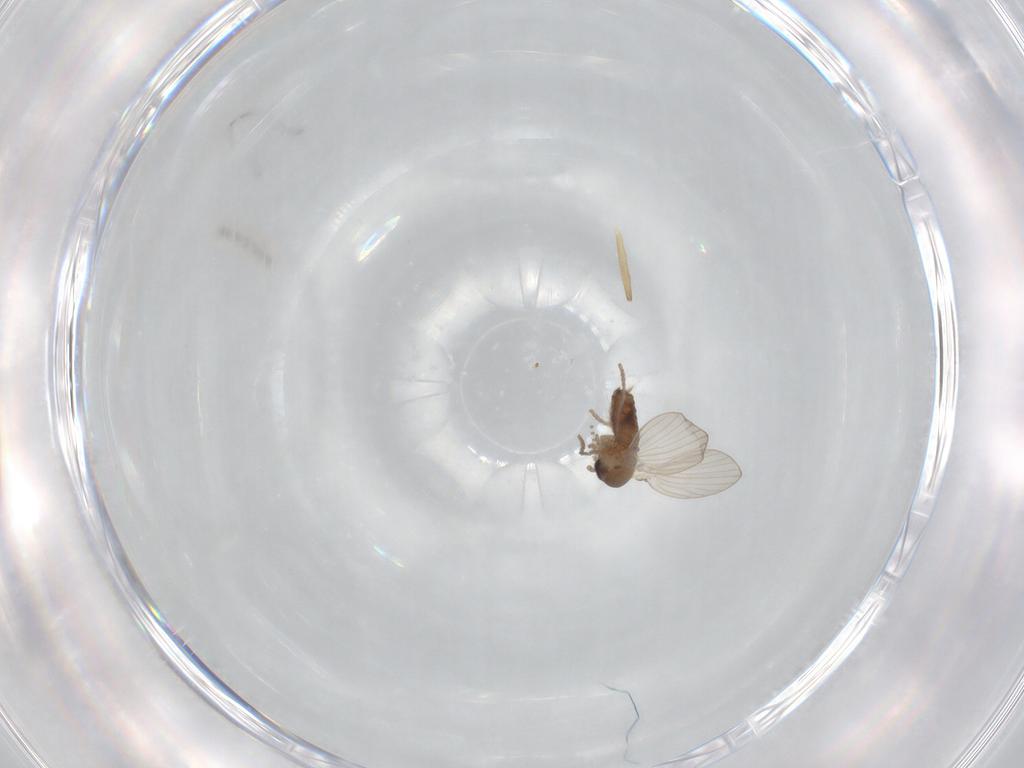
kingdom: Animalia
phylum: Arthropoda
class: Insecta
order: Diptera
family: Psychodidae
